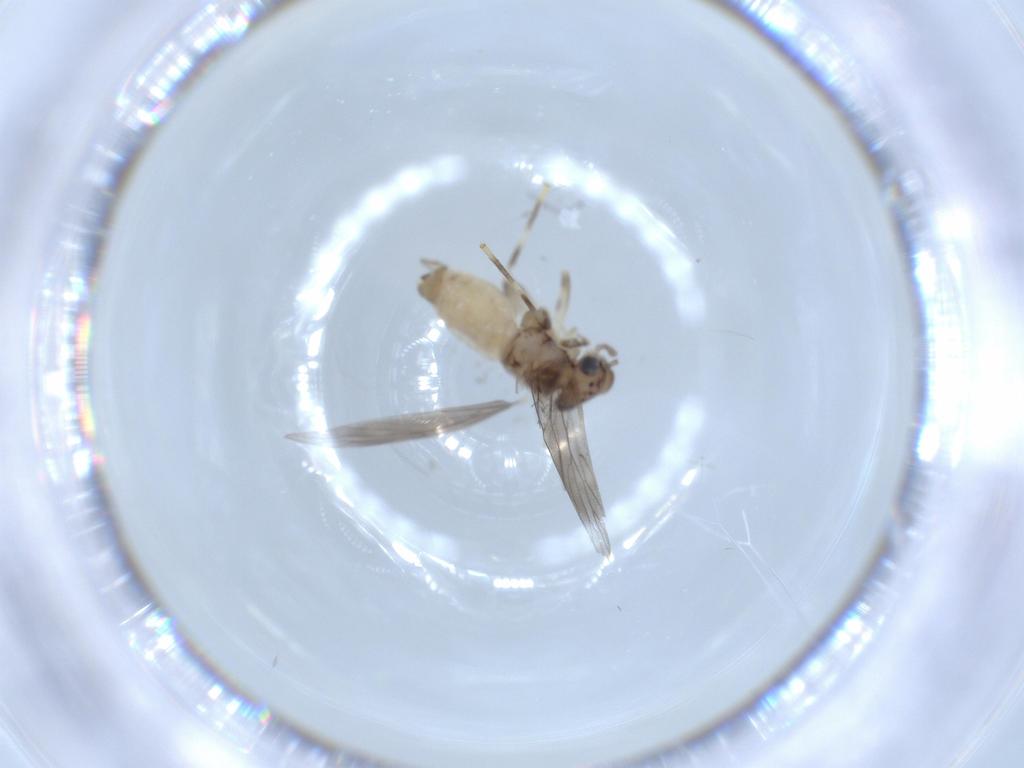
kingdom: Animalia
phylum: Arthropoda
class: Insecta
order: Psocodea
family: Lepidopsocidae
